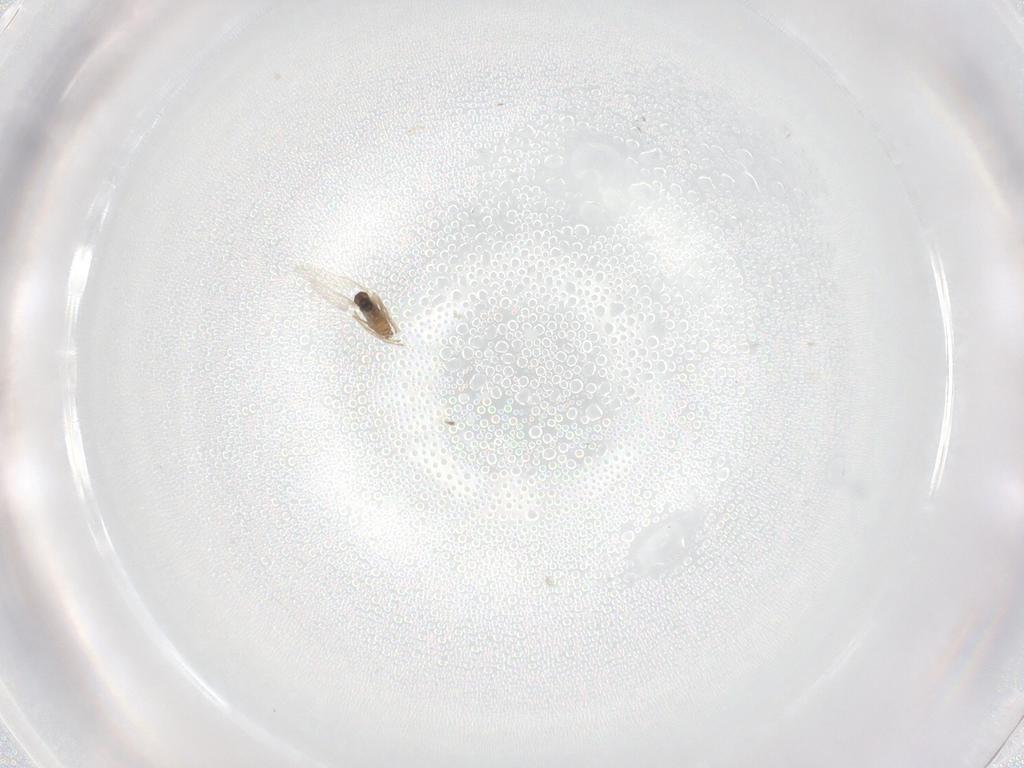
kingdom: Animalia
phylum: Arthropoda
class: Insecta
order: Diptera
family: Cecidomyiidae
